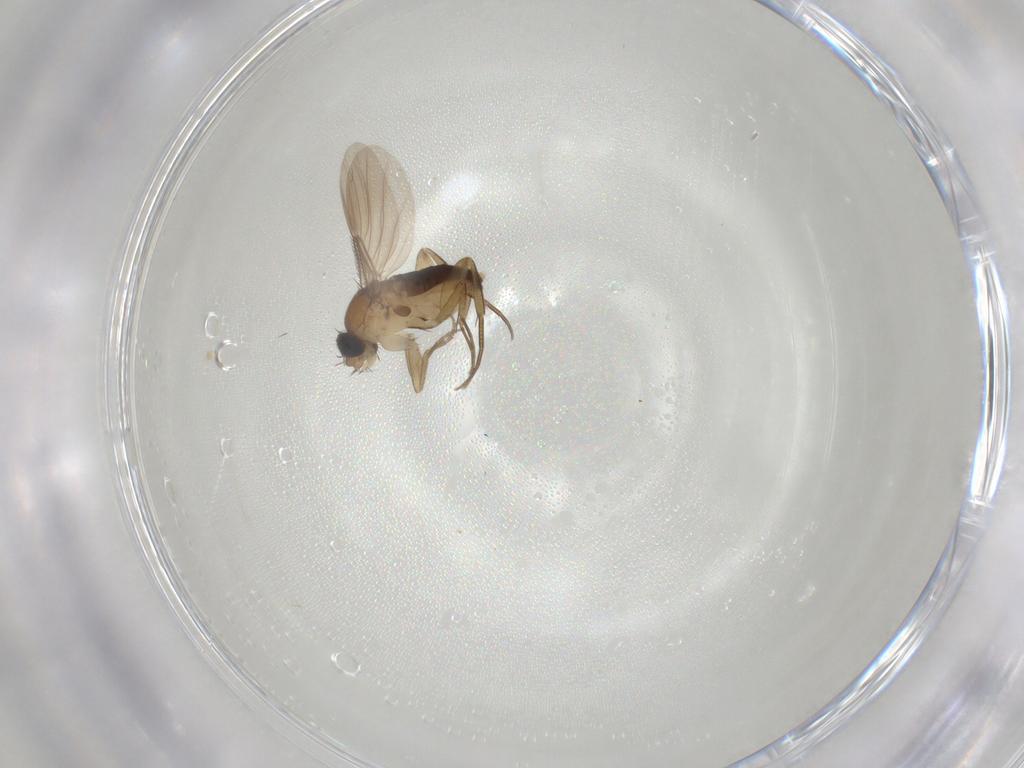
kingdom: Animalia
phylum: Arthropoda
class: Insecta
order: Diptera
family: Phoridae
